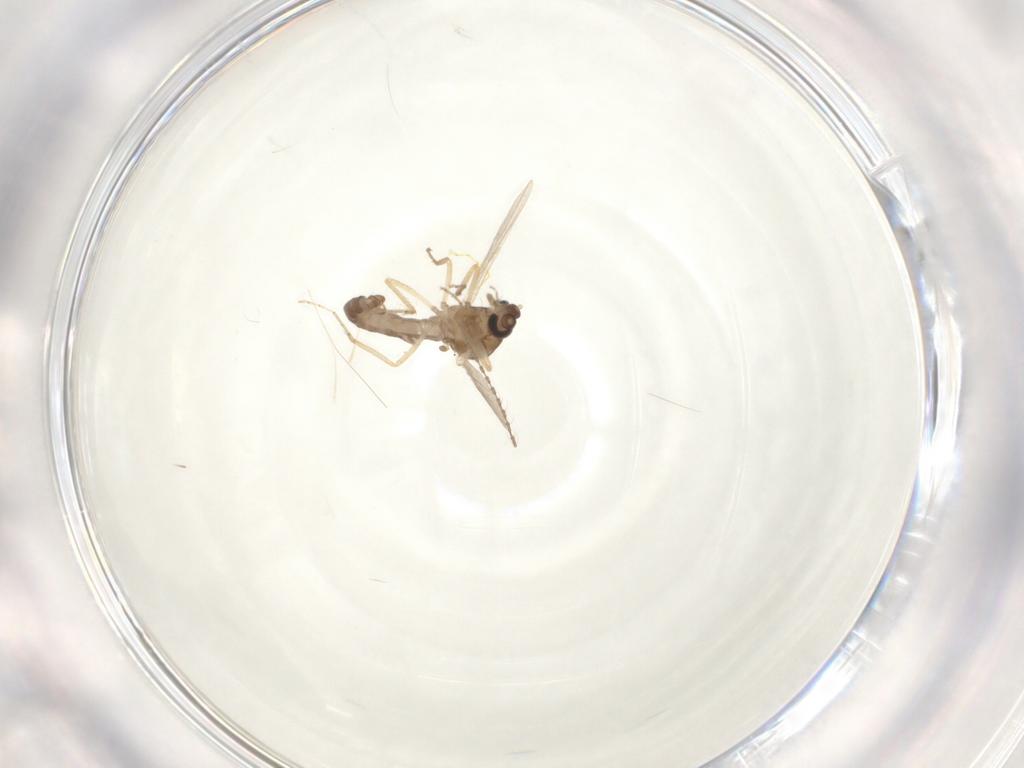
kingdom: Animalia
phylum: Arthropoda
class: Insecta
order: Diptera
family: Ceratopogonidae
